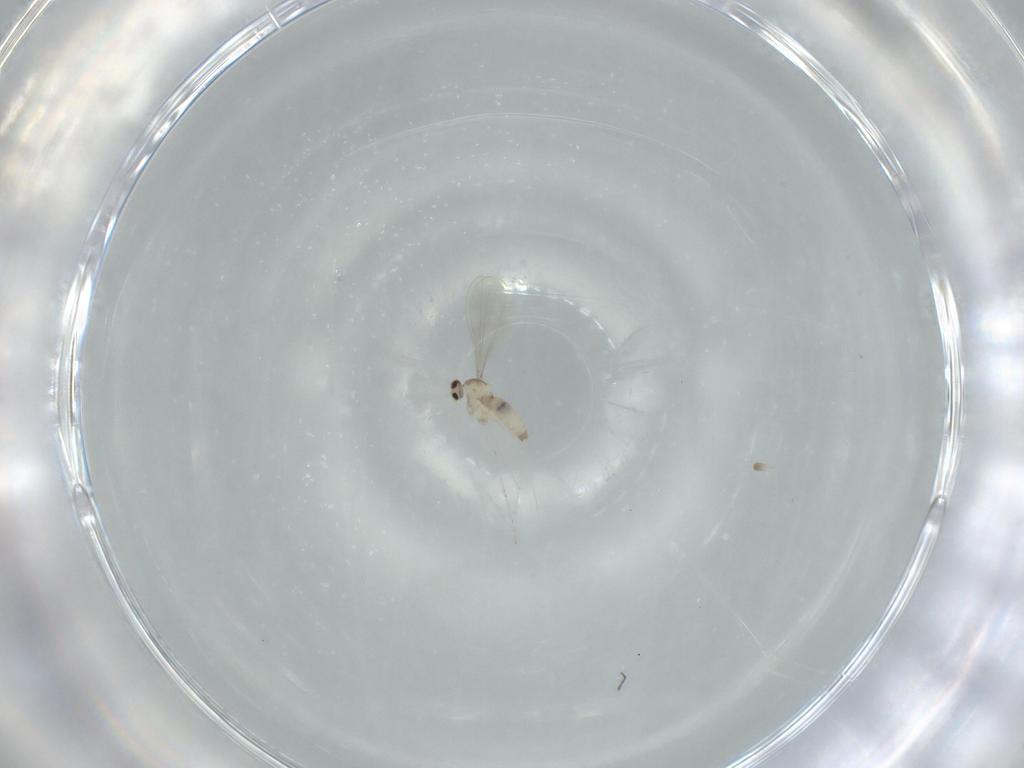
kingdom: Animalia
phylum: Arthropoda
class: Insecta
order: Diptera
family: Cecidomyiidae
